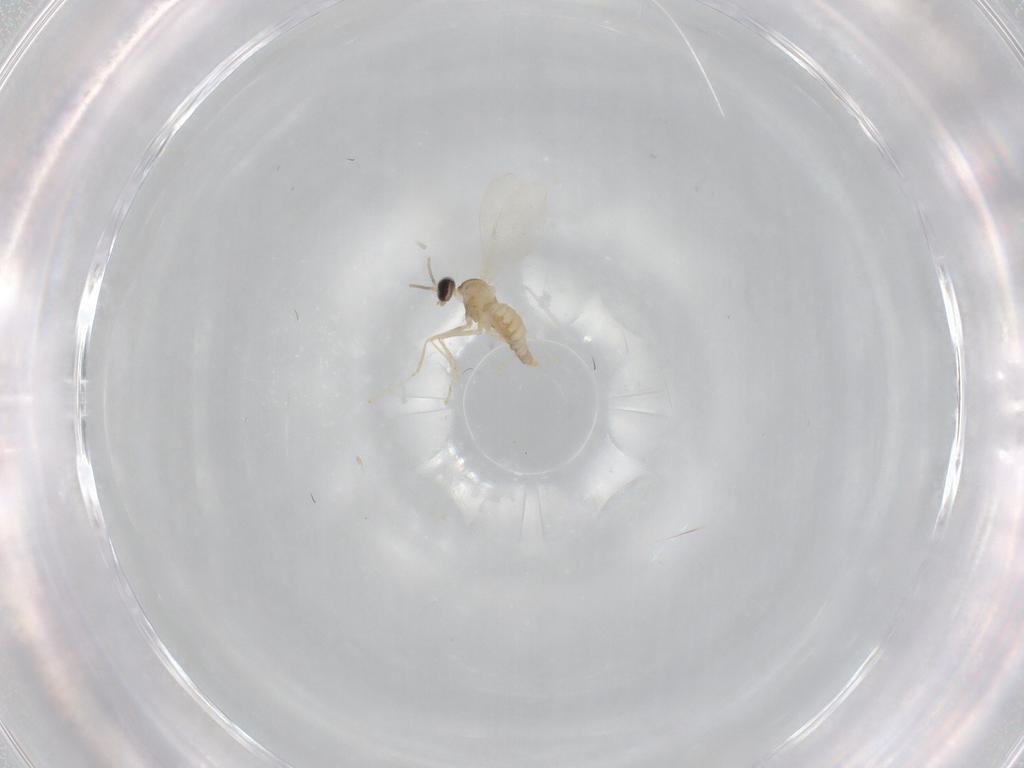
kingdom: Animalia
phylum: Arthropoda
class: Insecta
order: Diptera
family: Cecidomyiidae
